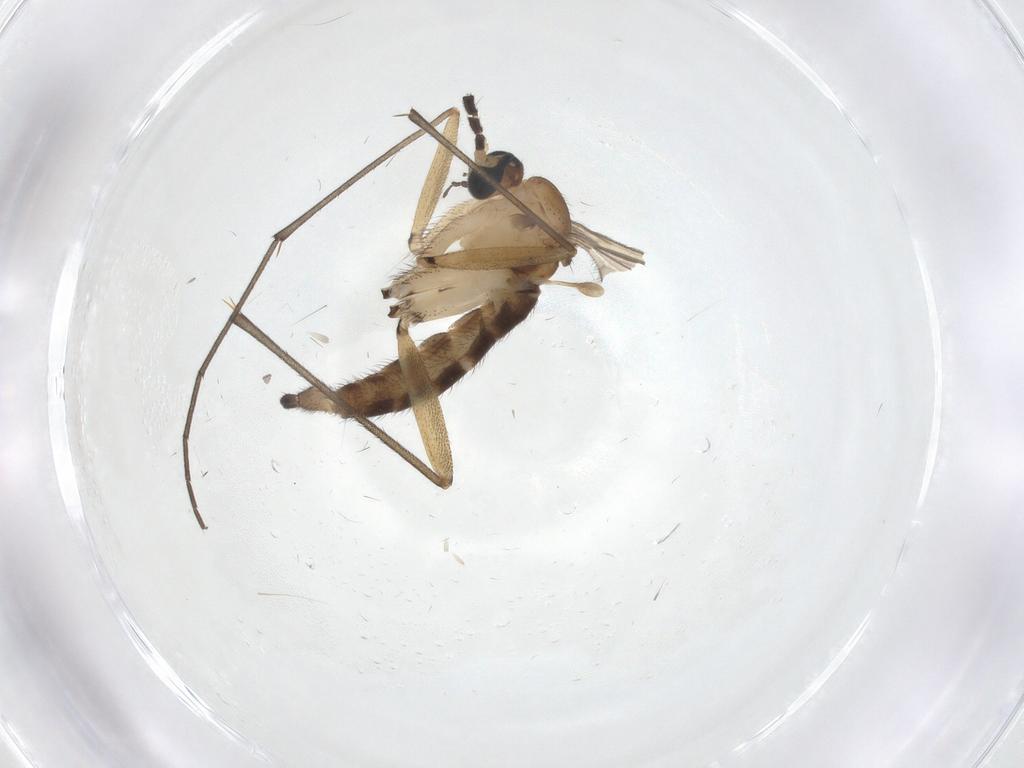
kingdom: Animalia
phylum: Arthropoda
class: Insecta
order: Diptera
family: Sciaridae
